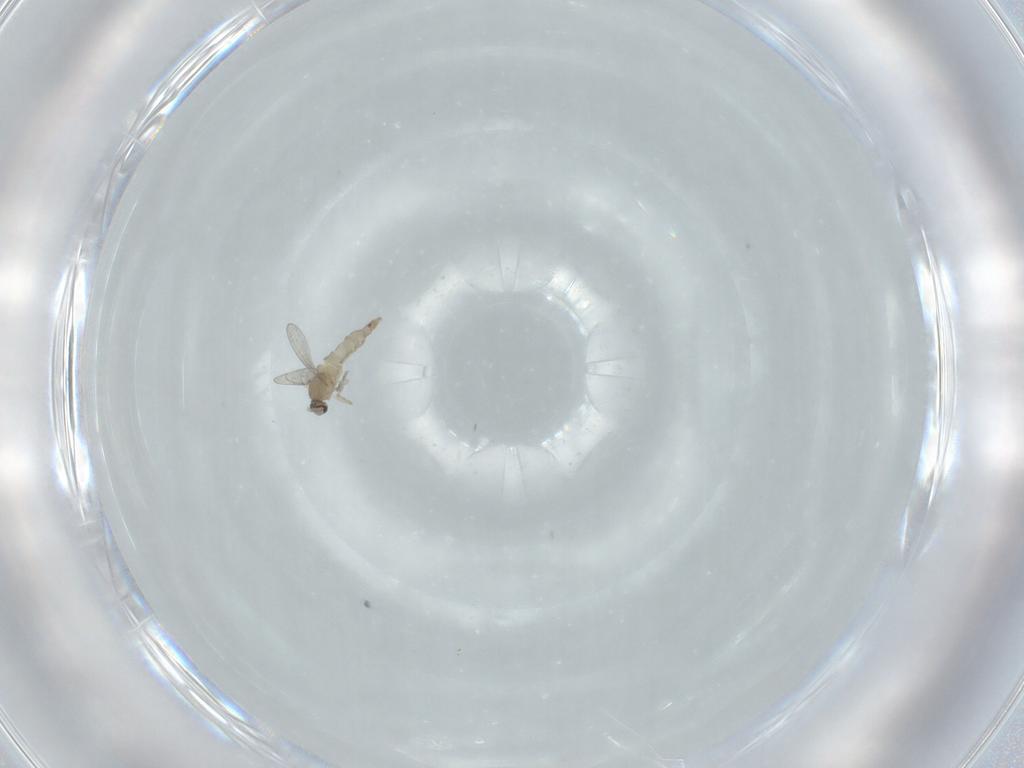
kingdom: Animalia
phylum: Arthropoda
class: Insecta
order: Diptera
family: Cecidomyiidae
